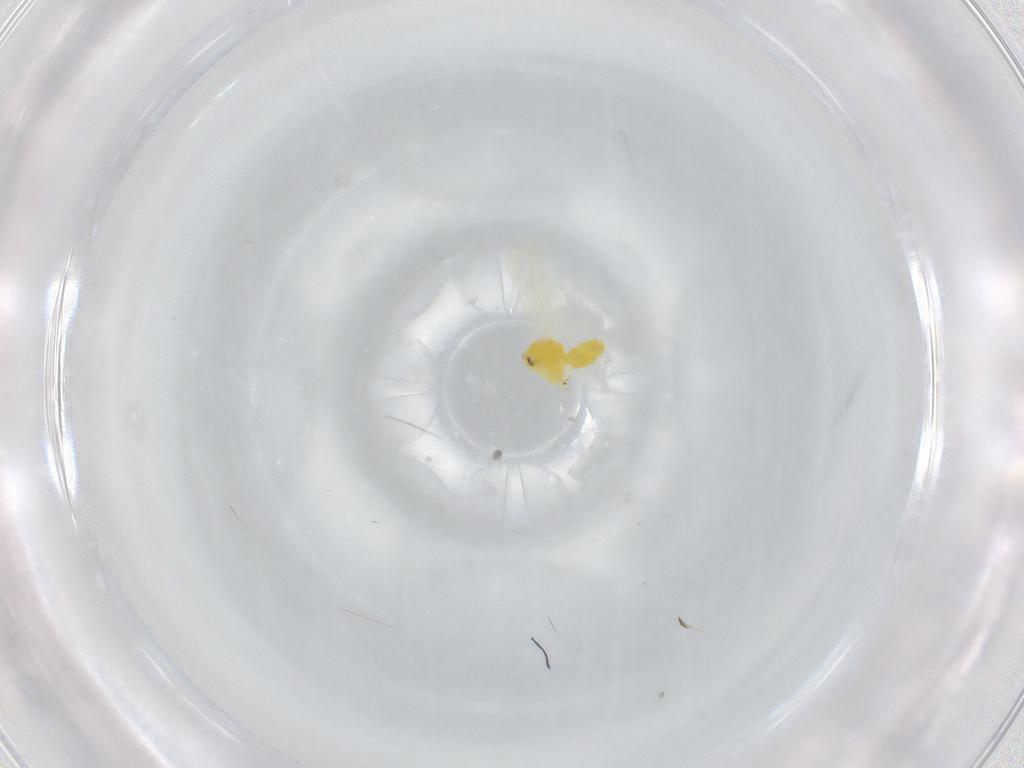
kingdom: Animalia
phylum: Arthropoda
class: Insecta
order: Hemiptera
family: Aleyrodidae
